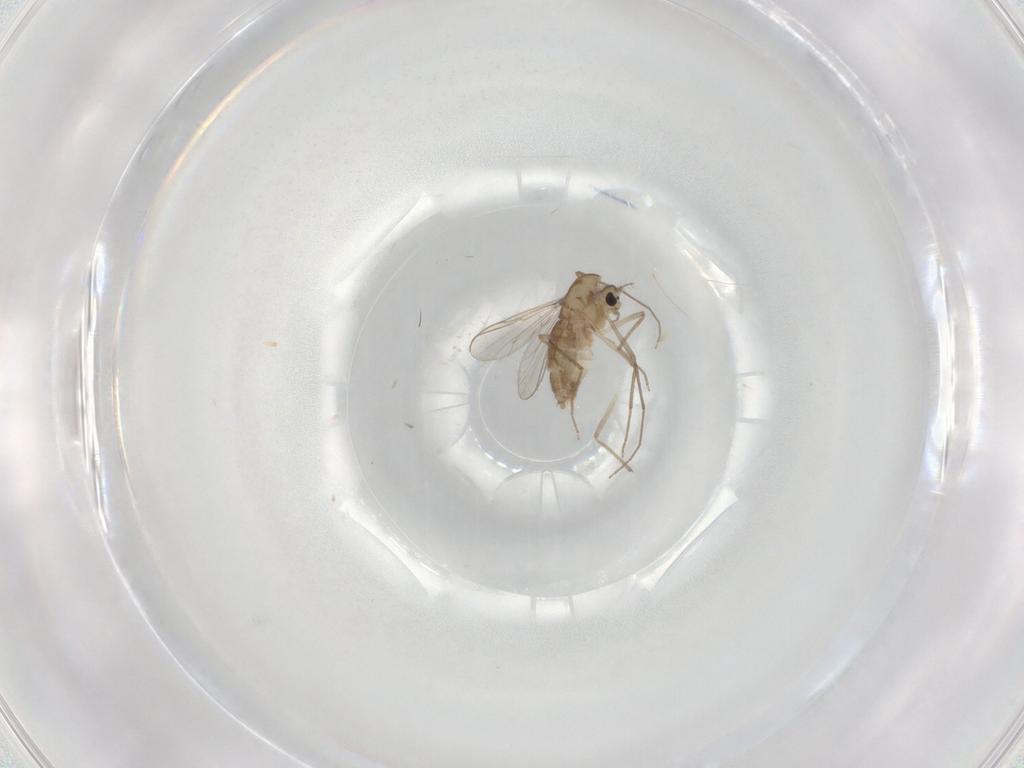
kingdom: Animalia
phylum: Arthropoda
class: Insecta
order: Diptera
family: Chironomidae
